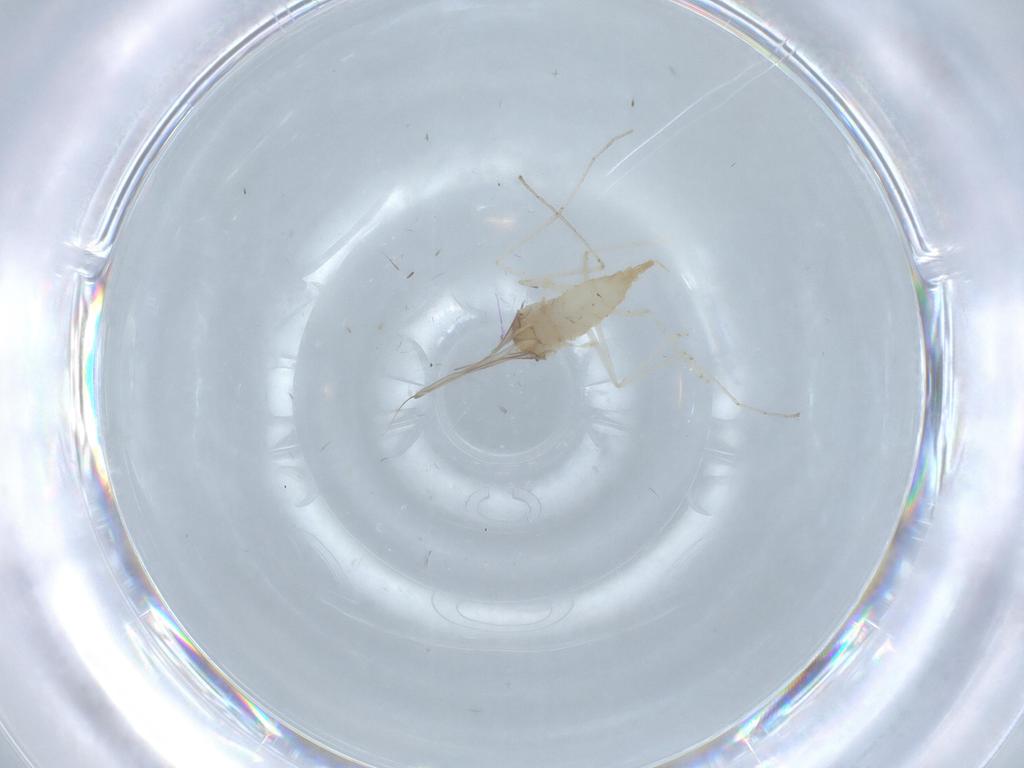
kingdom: Animalia
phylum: Arthropoda
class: Insecta
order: Diptera
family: Cecidomyiidae
